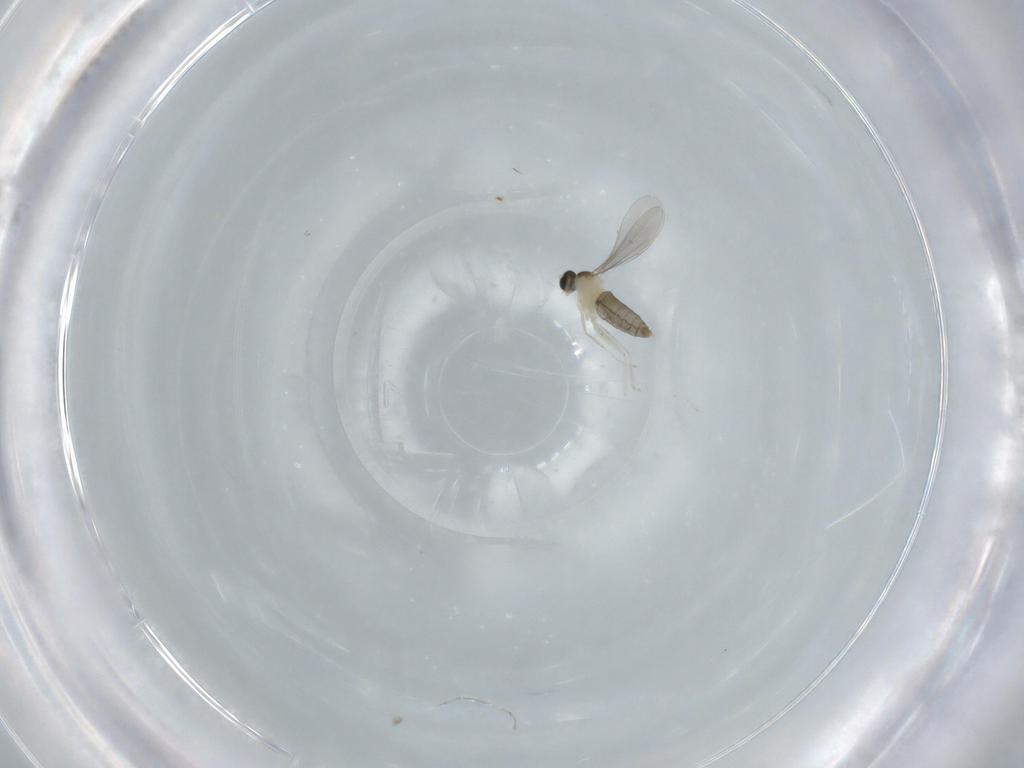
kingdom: Animalia
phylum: Arthropoda
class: Insecta
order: Diptera
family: Cecidomyiidae
